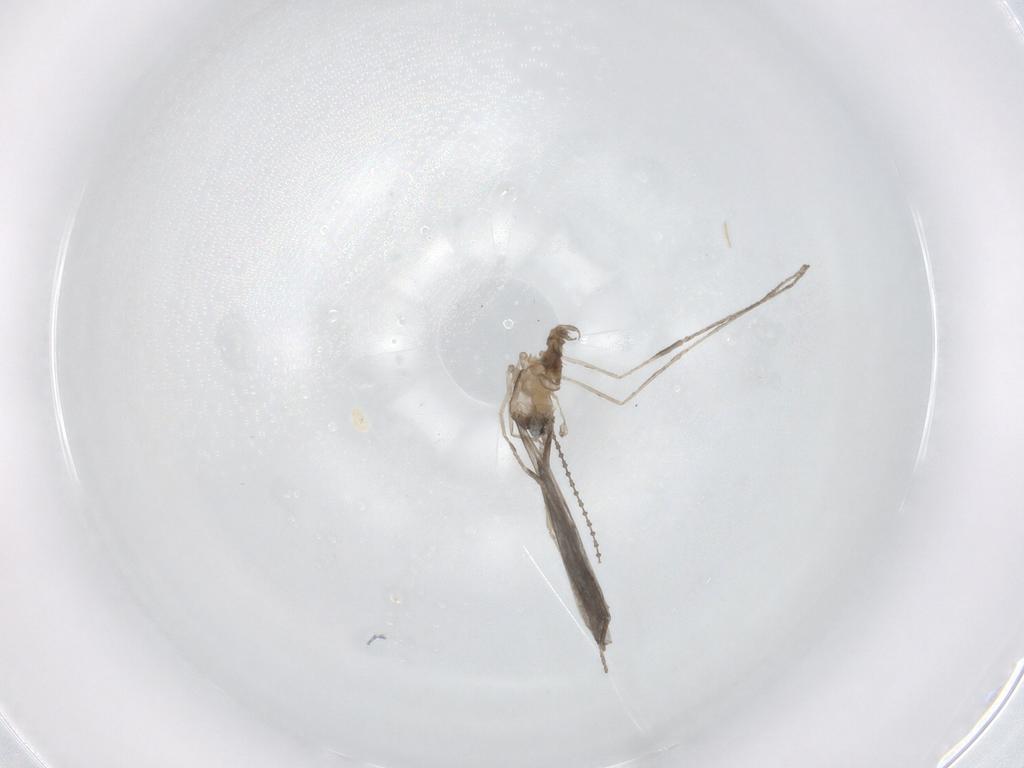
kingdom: Animalia
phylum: Arthropoda
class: Insecta
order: Diptera
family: Cecidomyiidae
